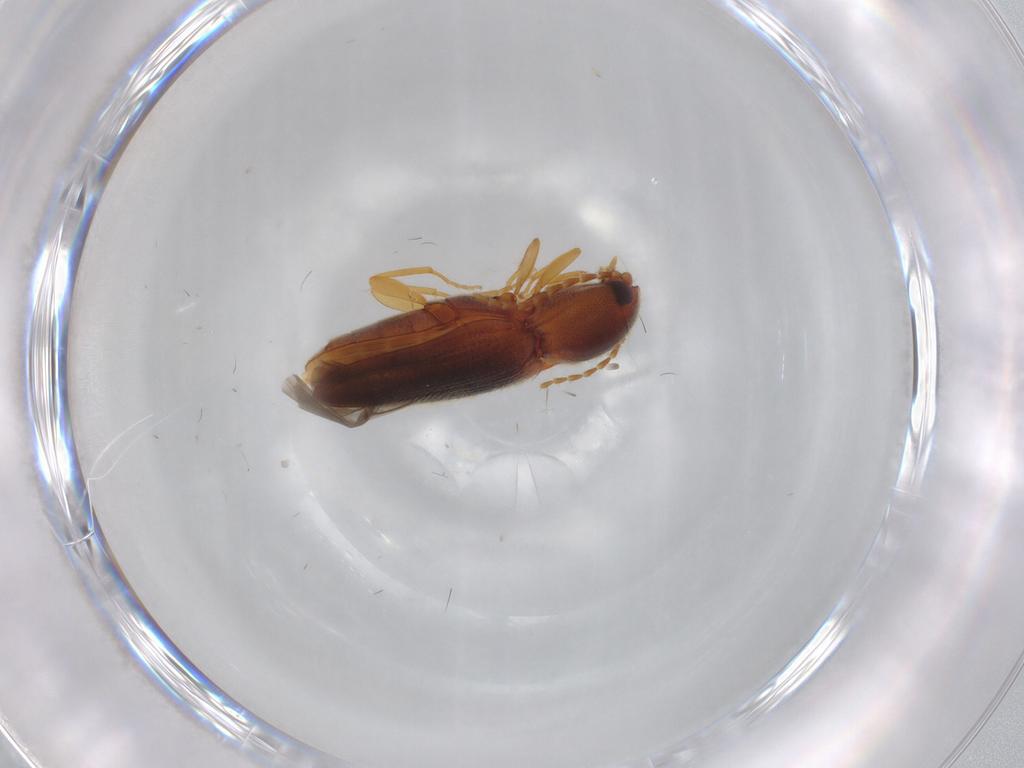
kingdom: Animalia
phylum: Arthropoda
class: Insecta
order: Coleoptera
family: Elateridae
